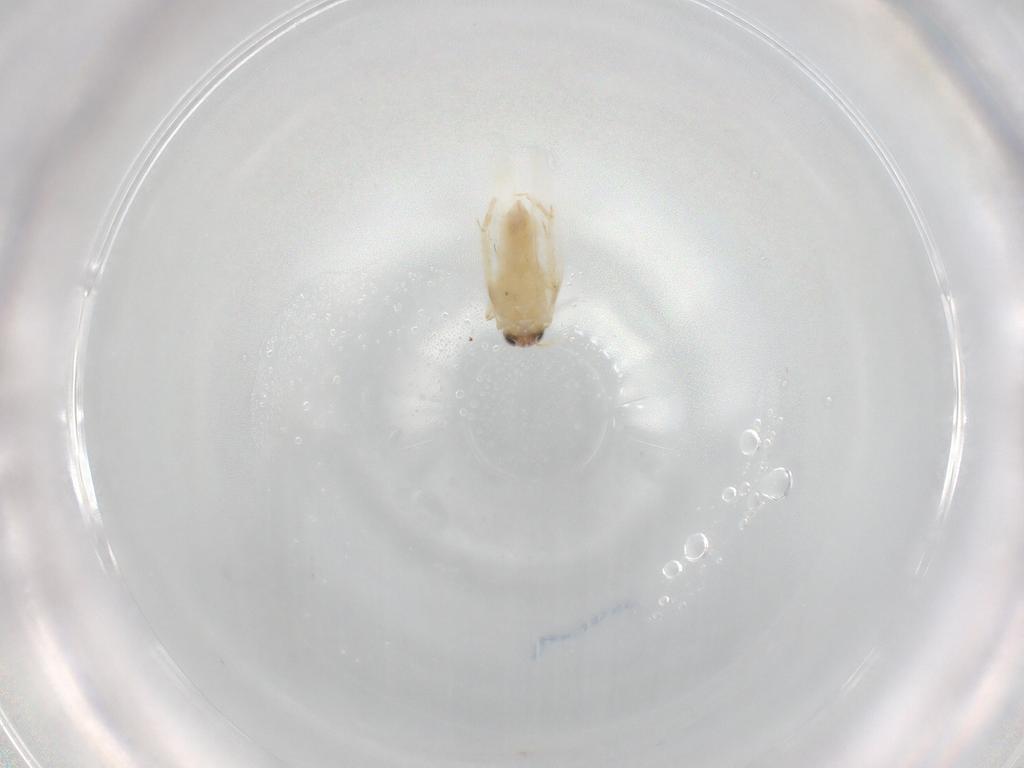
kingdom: Animalia
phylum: Arthropoda
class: Insecta
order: Lepidoptera
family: Nepticulidae
